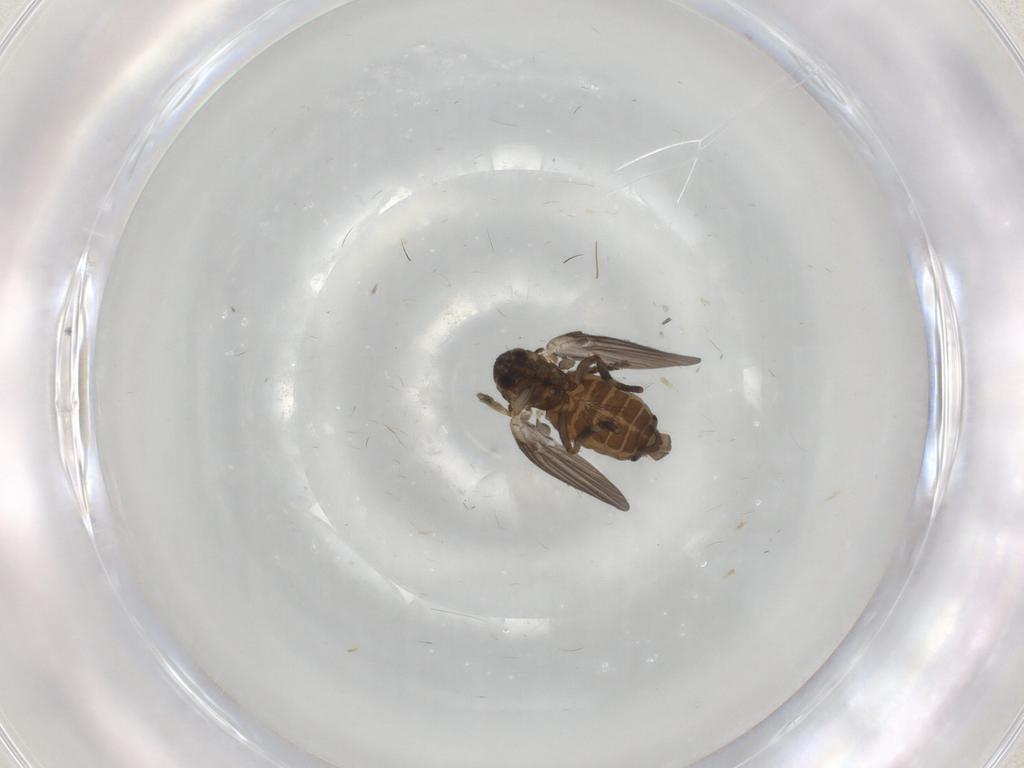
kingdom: Animalia
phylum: Arthropoda
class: Insecta
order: Diptera
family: Psychodidae
